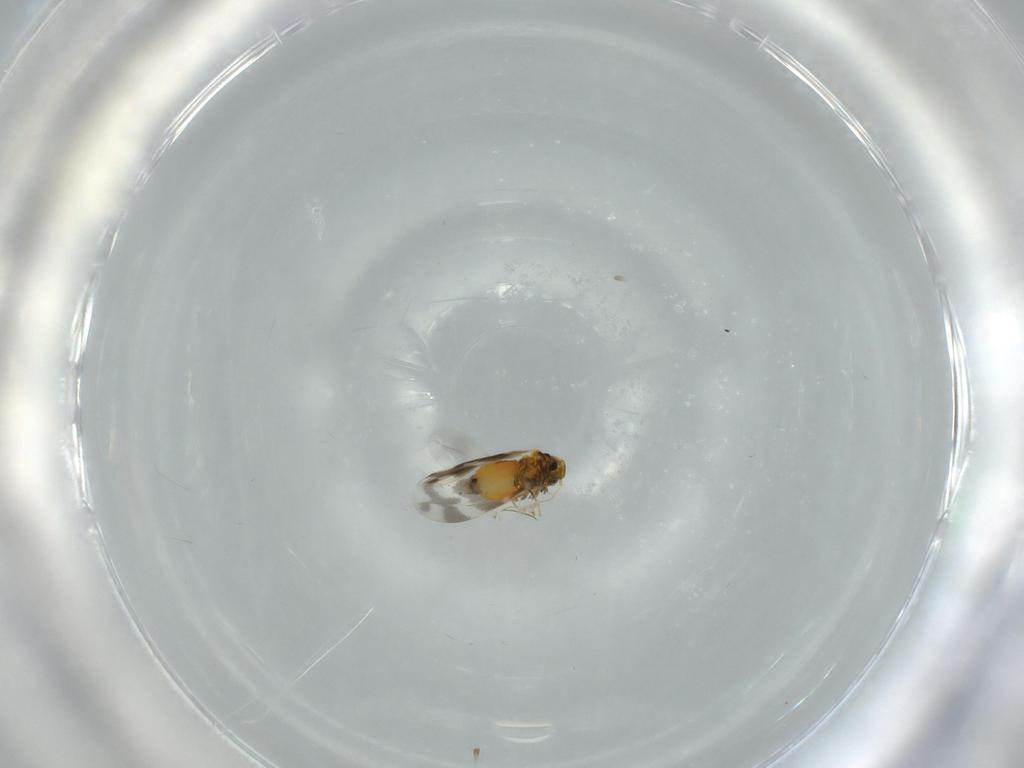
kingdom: Animalia
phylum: Arthropoda
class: Insecta
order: Hemiptera
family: Aleyrodidae
